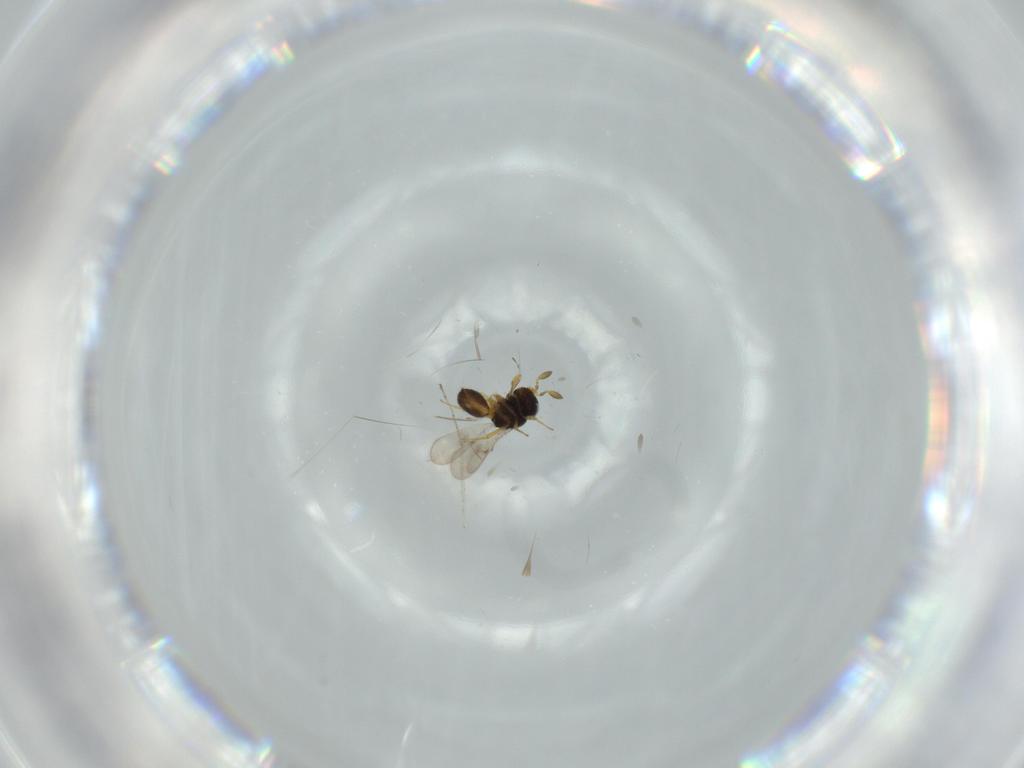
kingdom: Animalia
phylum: Arthropoda
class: Insecta
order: Hymenoptera
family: Scelionidae
